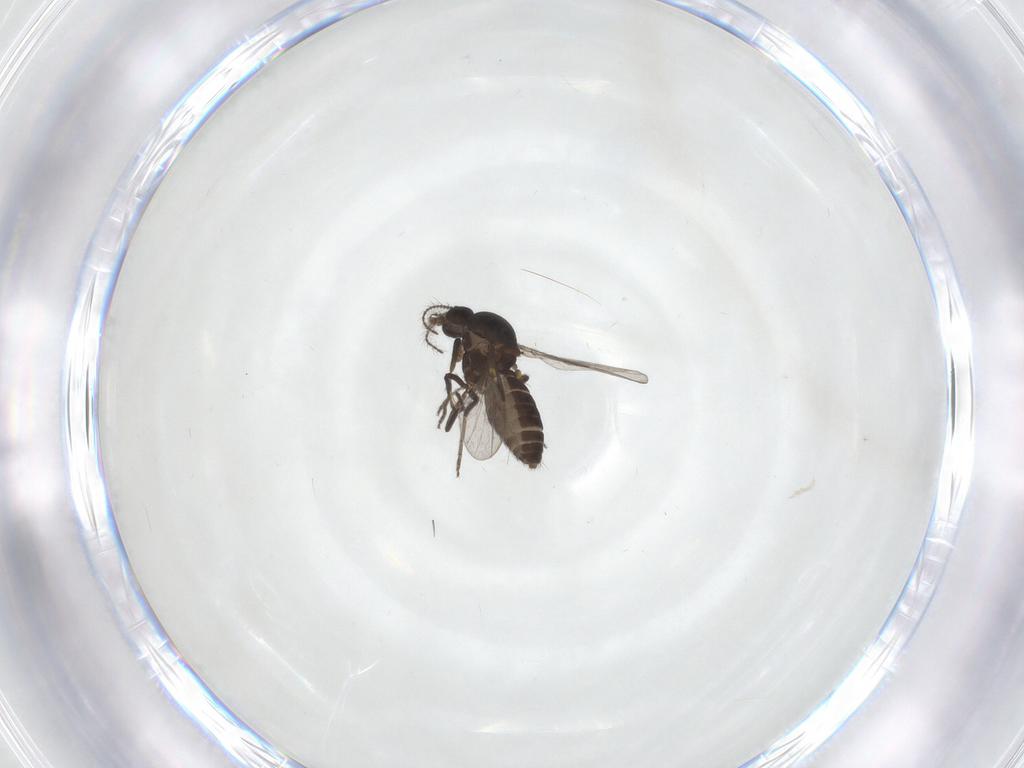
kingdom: Animalia
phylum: Arthropoda
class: Insecta
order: Diptera
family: Ceratopogonidae
